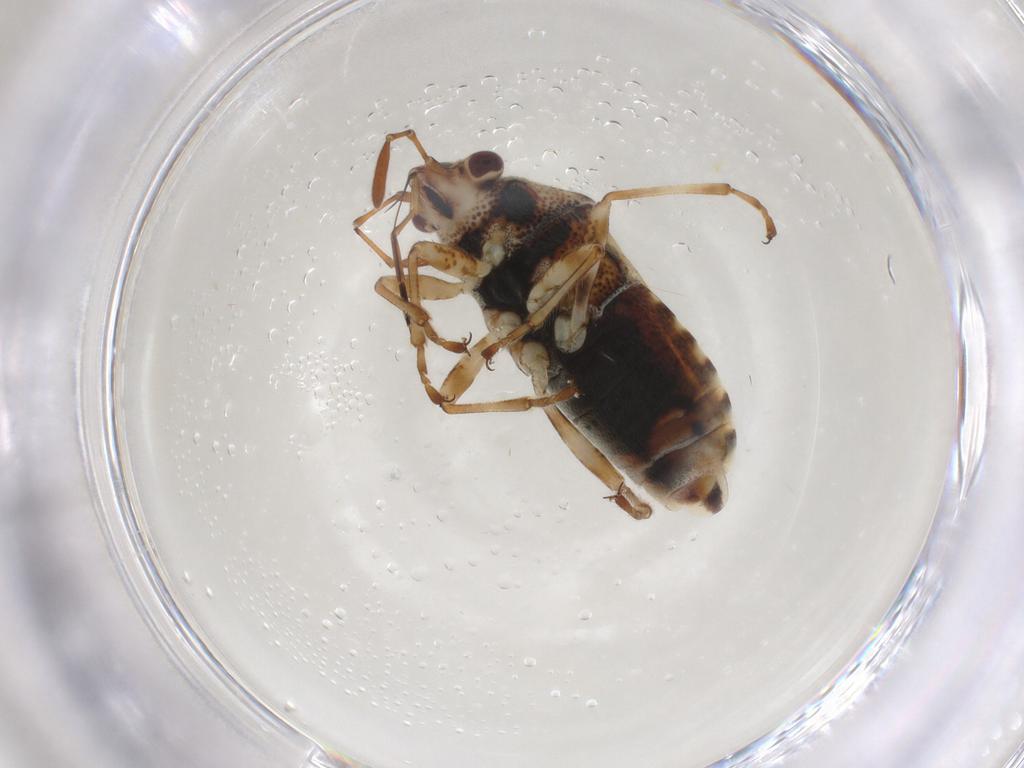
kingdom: Animalia
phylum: Arthropoda
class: Insecta
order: Hemiptera
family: Lygaeidae
